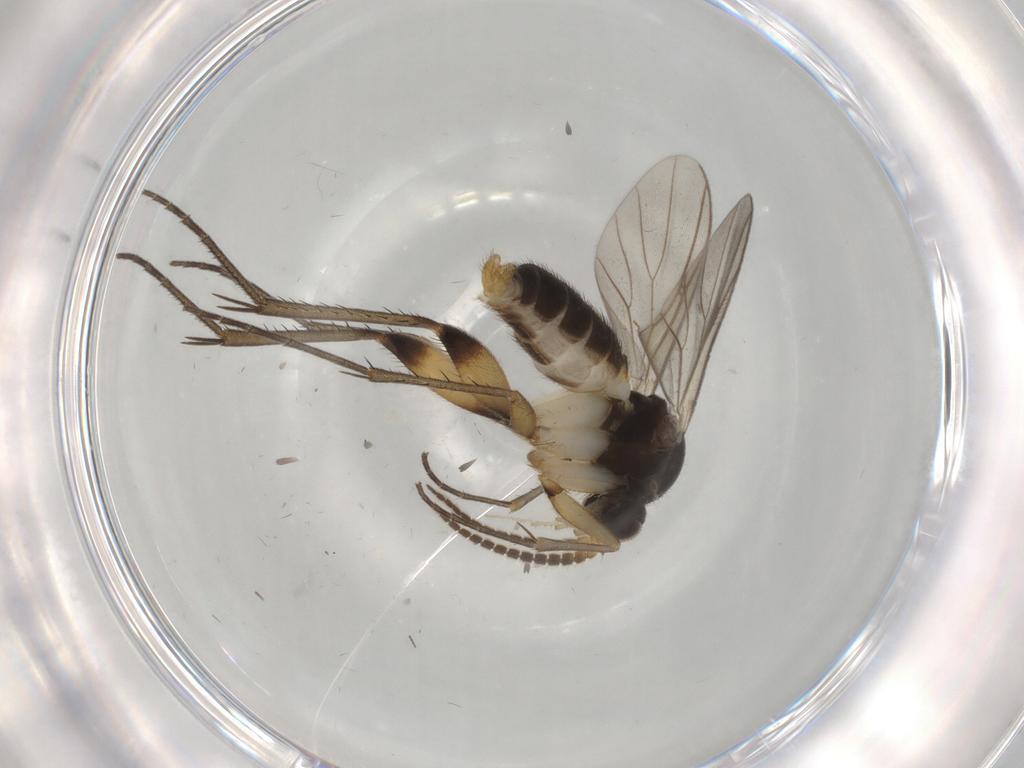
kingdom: Animalia
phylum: Arthropoda
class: Insecta
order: Diptera
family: Mycetophilidae
